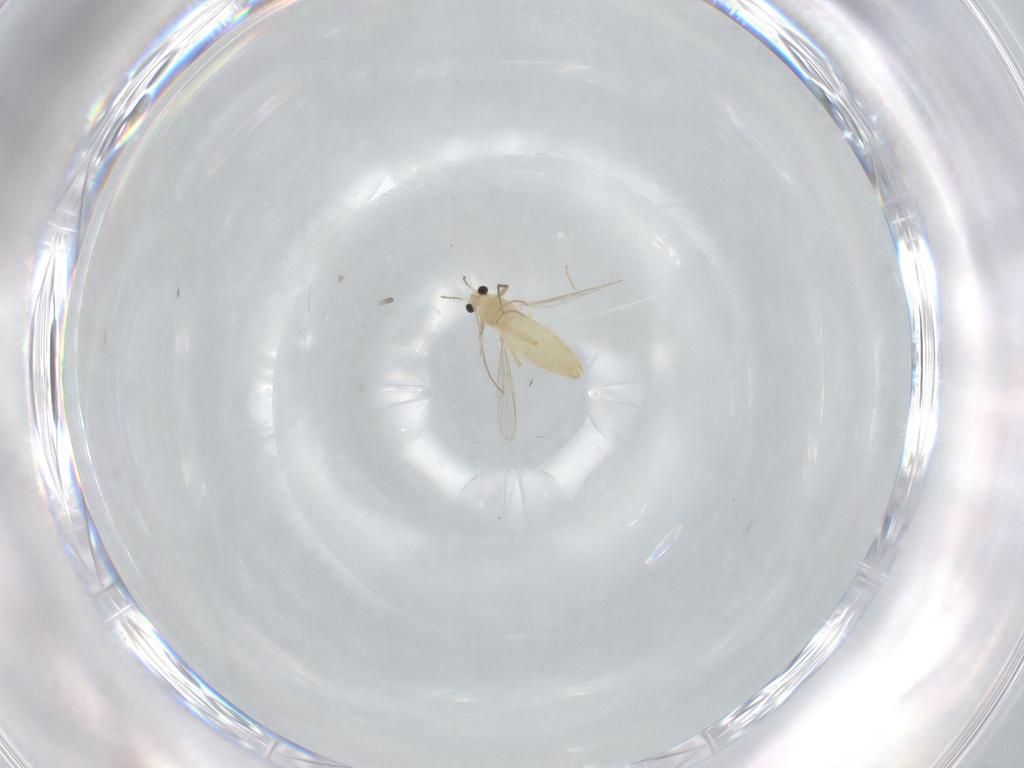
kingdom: Animalia
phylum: Arthropoda
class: Insecta
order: Diptera
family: Chironomidae
